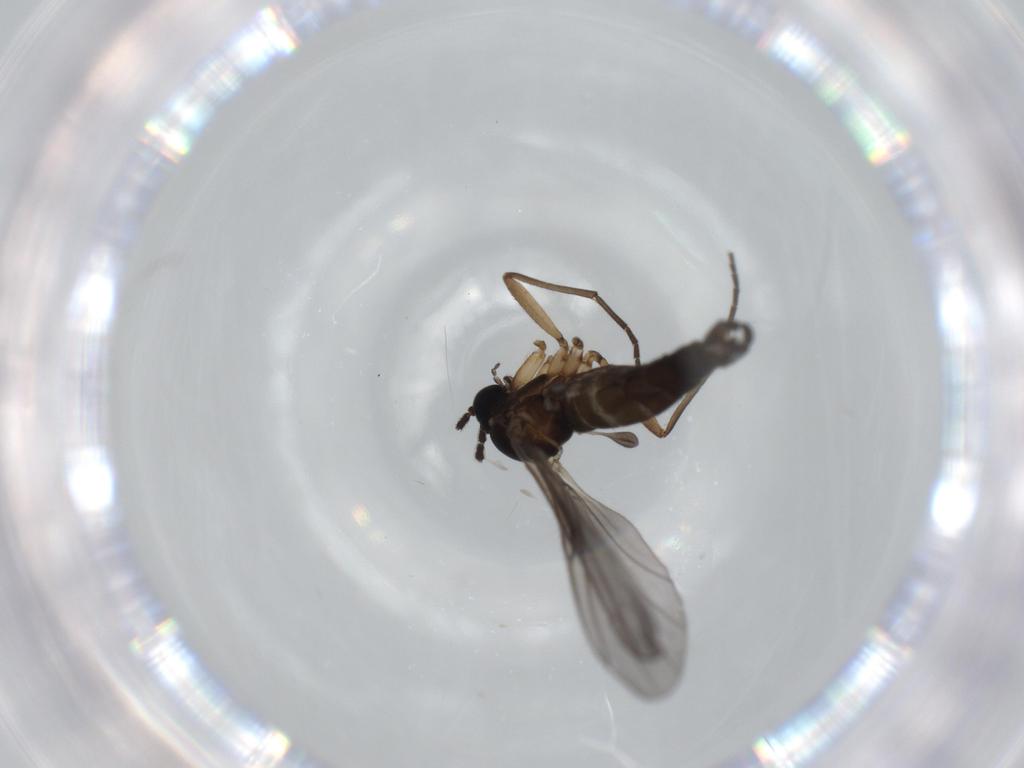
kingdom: Animalia
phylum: Arthropoda
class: Insecta
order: Diptera
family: Sciaridae
